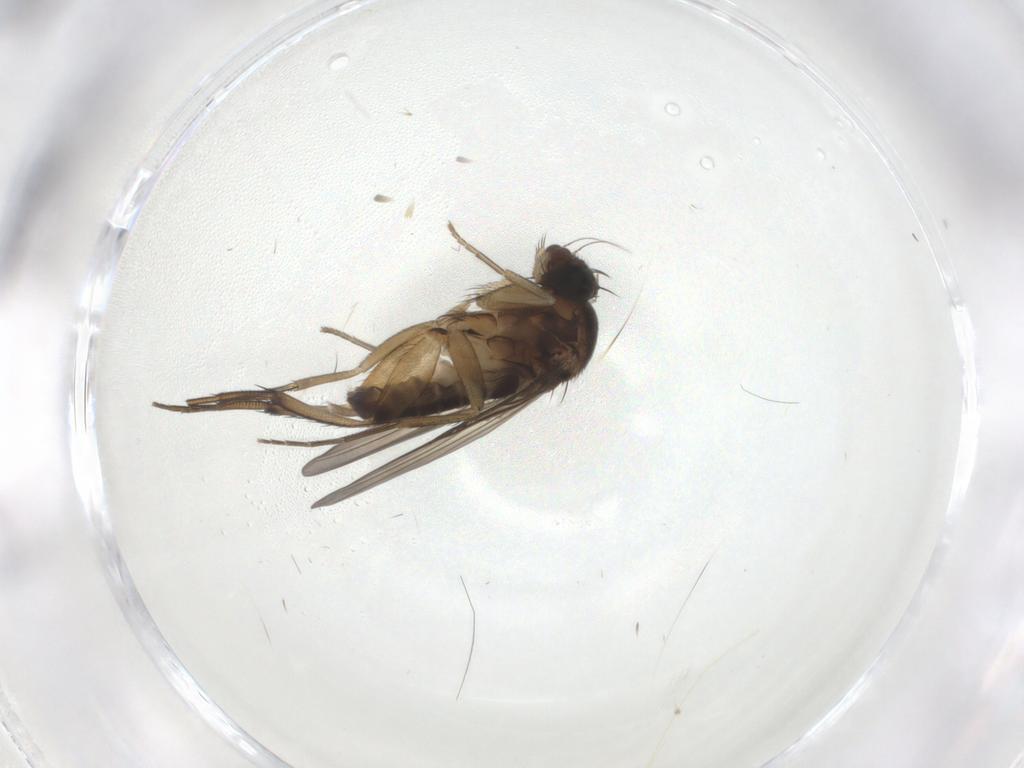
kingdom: Animalia
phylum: Arthropoda
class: Insecta
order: Diptera
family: Phoridae
